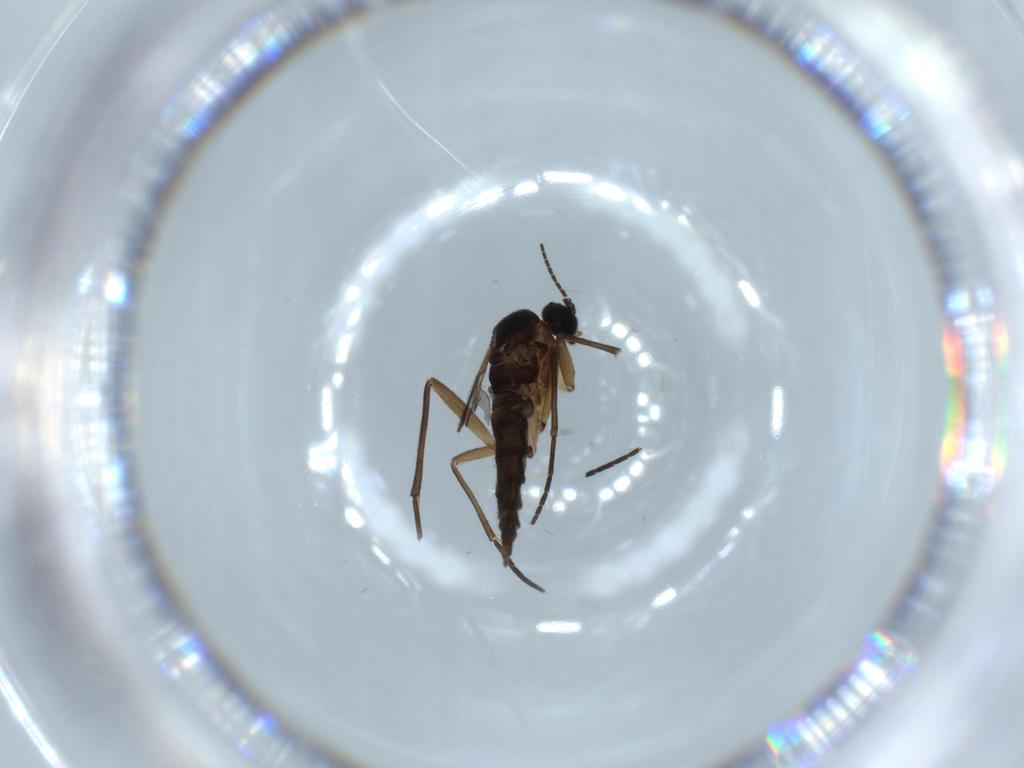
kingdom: Animalia
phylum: Arthropoda
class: Insecta
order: Diptera
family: Sciaridae
